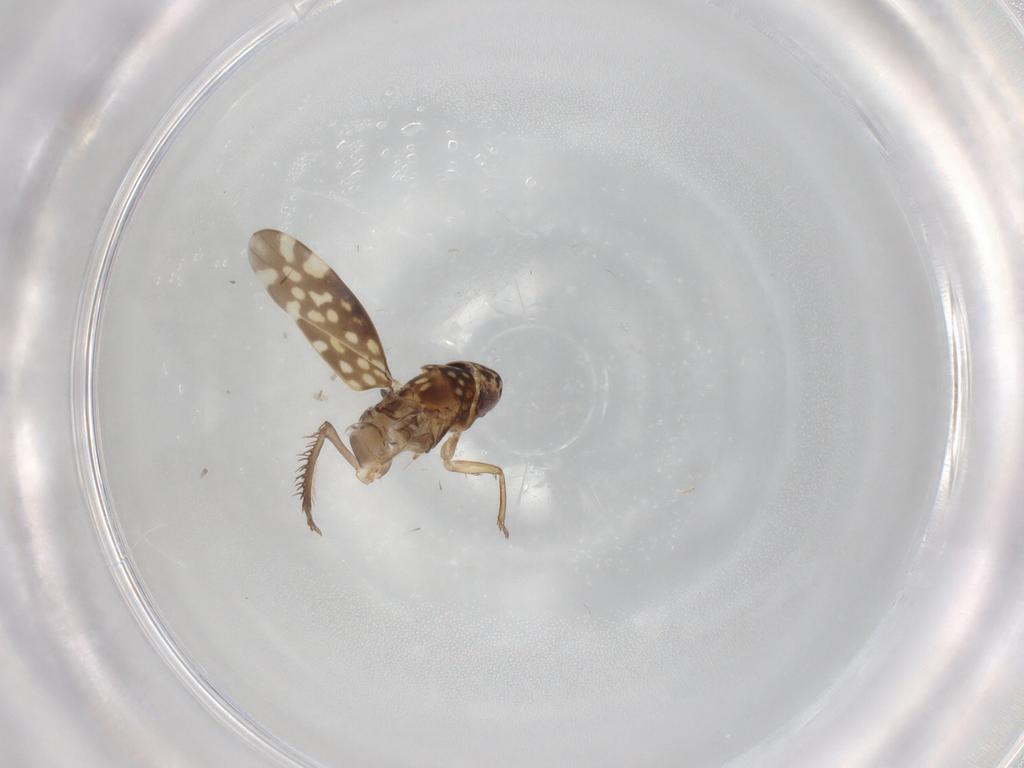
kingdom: Animalia
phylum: Arthropoda
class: Insecta
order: Hemiptera
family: Cicadellidae
